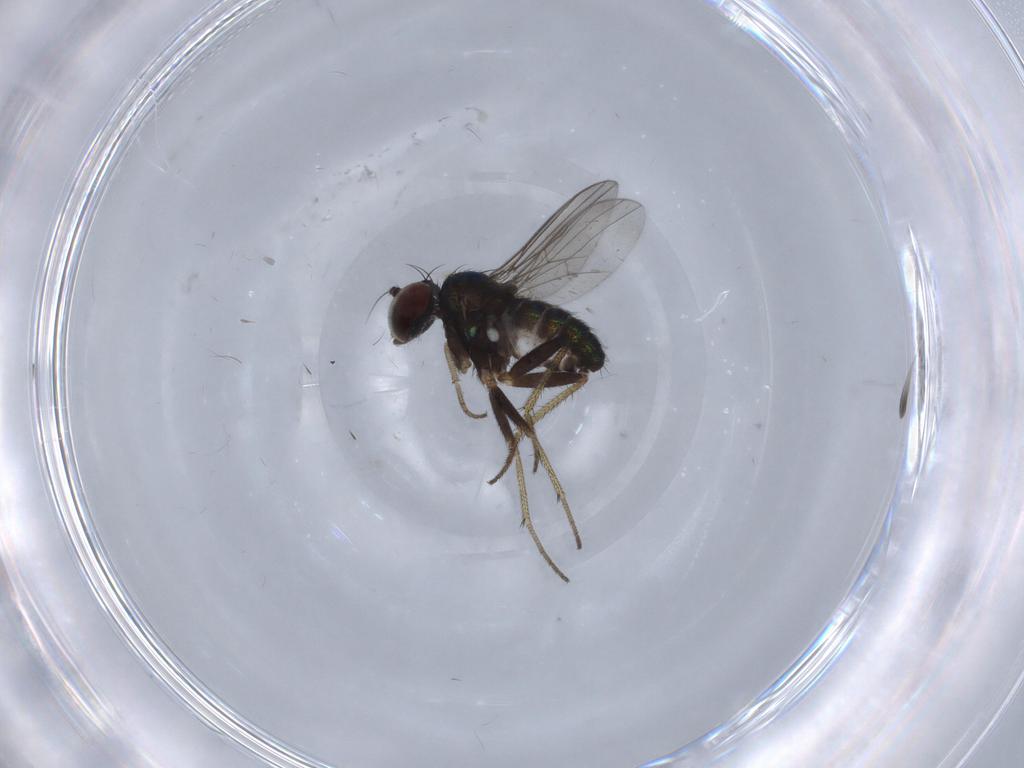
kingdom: Animalia
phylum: Arthropoda
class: Insecta
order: Diptera
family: Dolichopodidae
